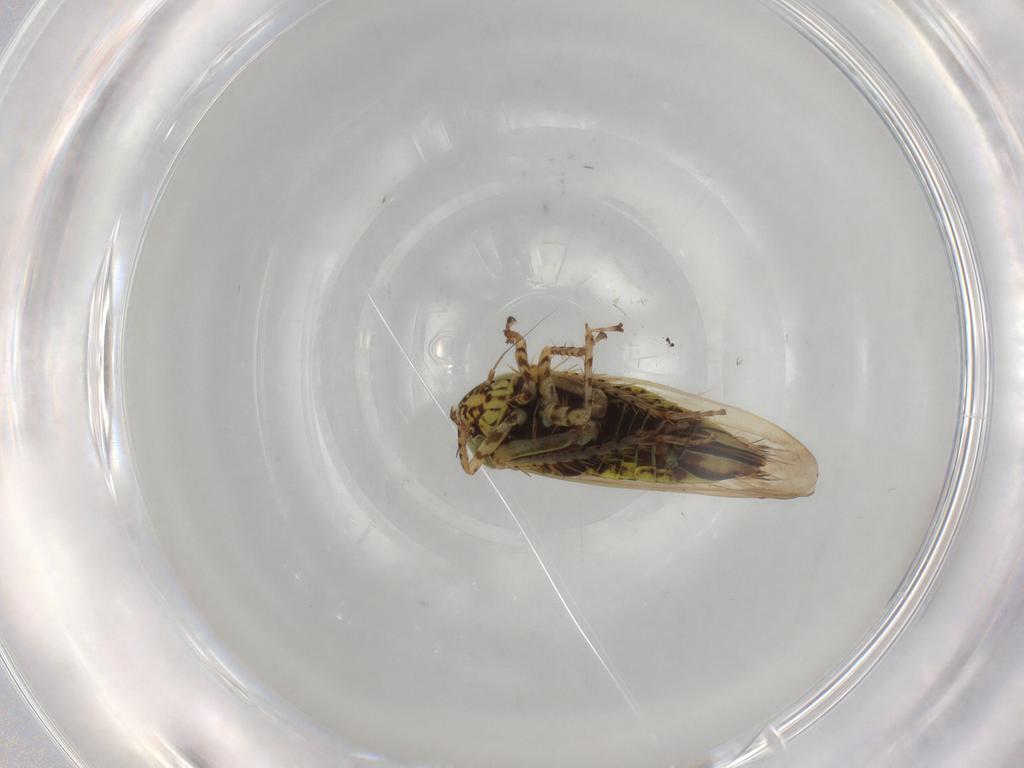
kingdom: Animalia
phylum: Arthropoda
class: Insecta
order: Hemiptera
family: Cicadellidae
